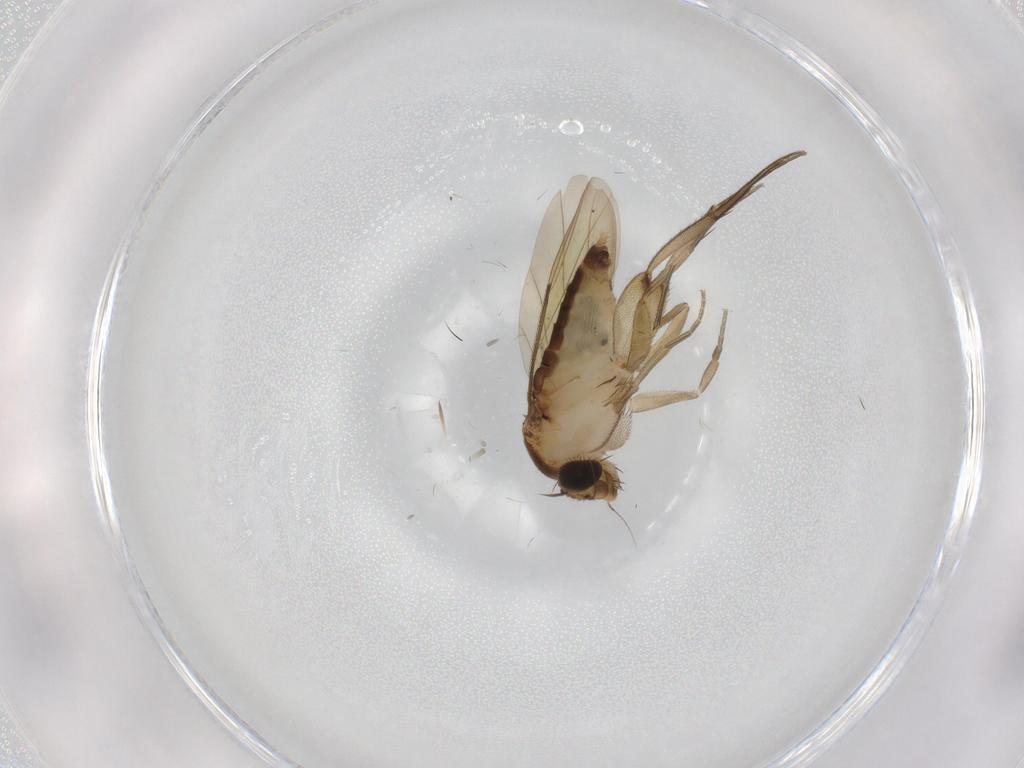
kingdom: Animalia
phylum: Arthropoda
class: Insecta
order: Diptera
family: Phoridae
